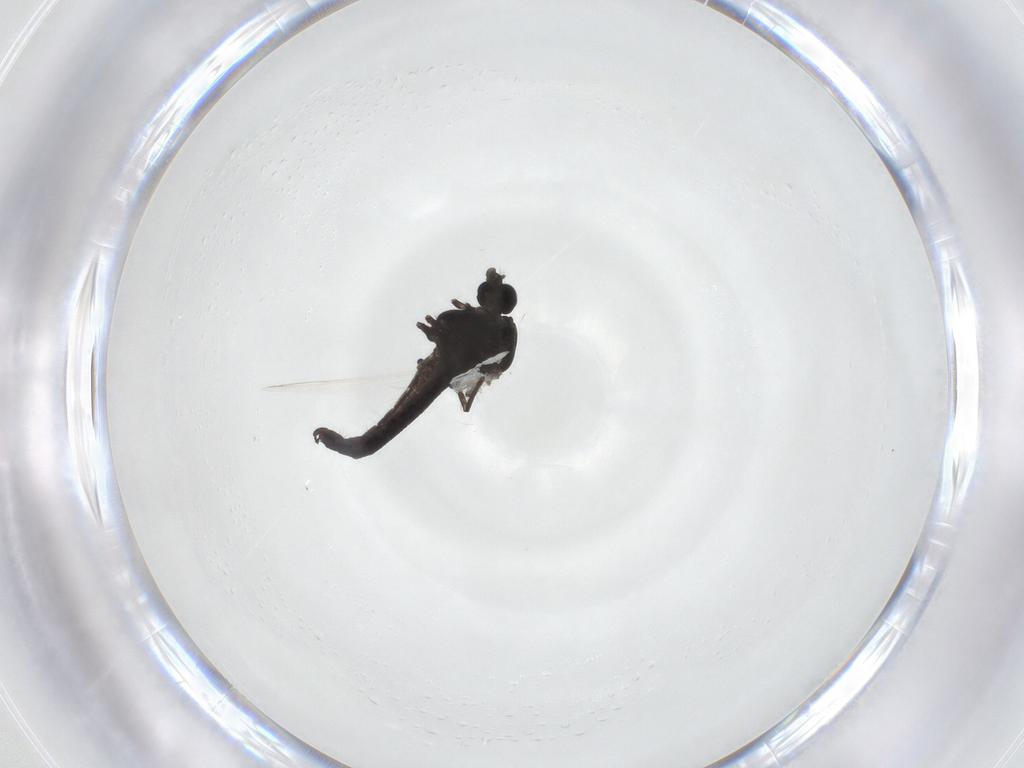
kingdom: Animalia
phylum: Arthropoda
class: Insecta
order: Diptera
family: Chironomidae
